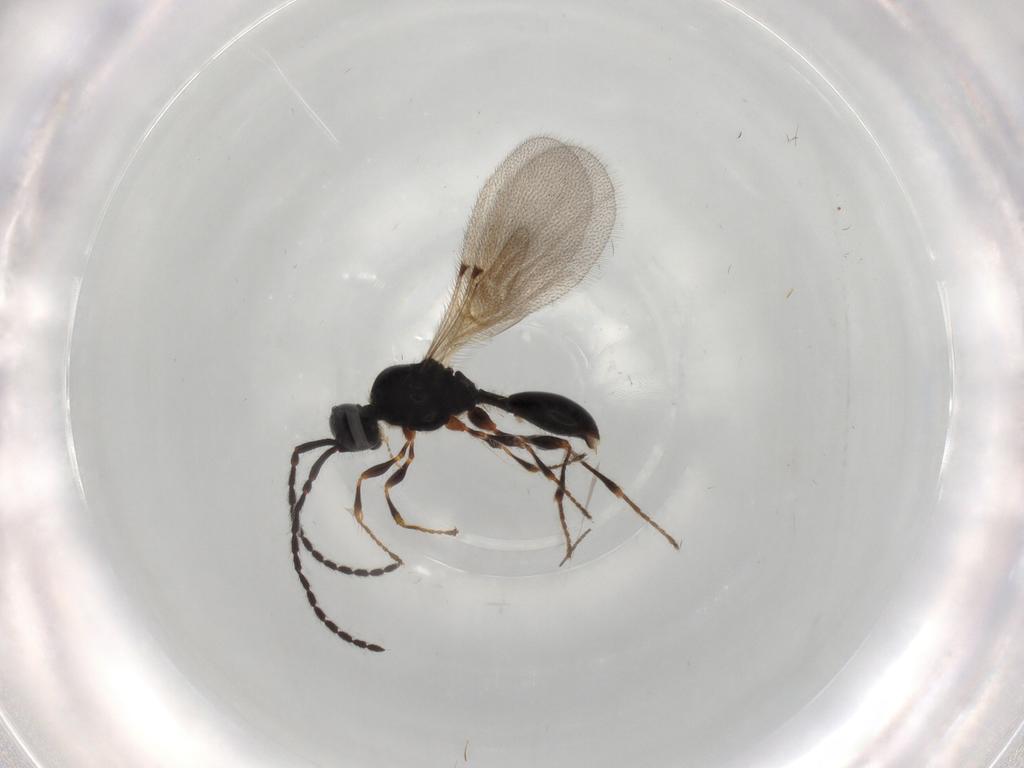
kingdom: Animalia
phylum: Arthropoda
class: Insecta
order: Hymenoptera
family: Diapriidae
